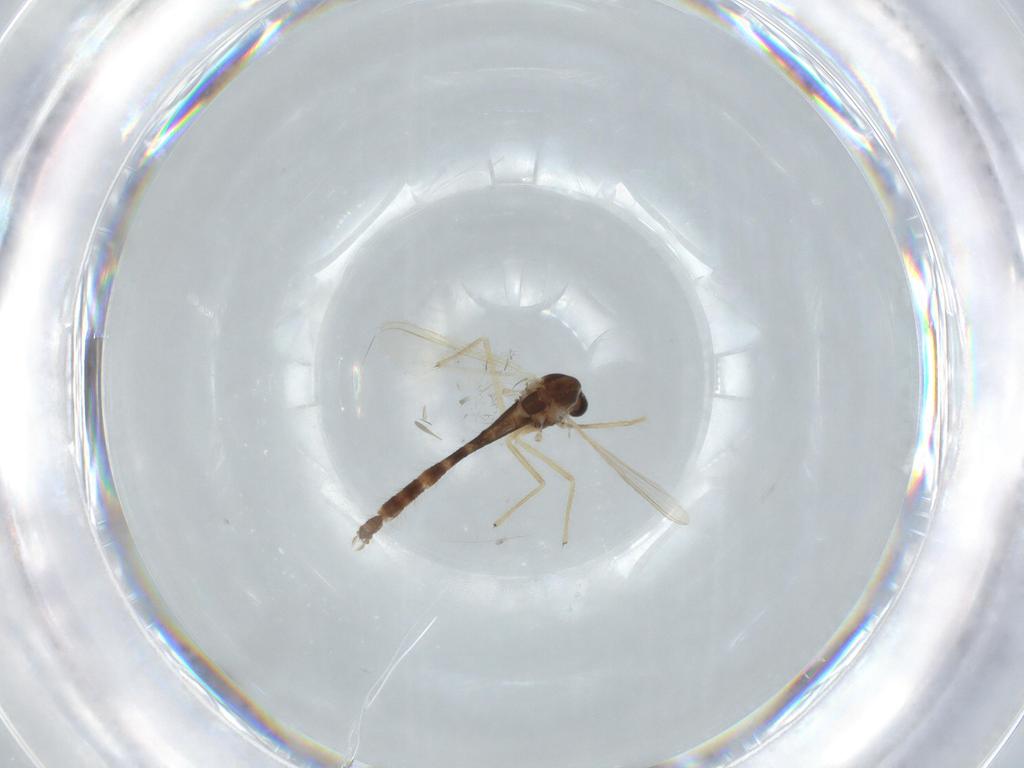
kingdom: Animalia
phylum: Arthropoda
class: Insecta
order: Diptera
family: Chironomidae
